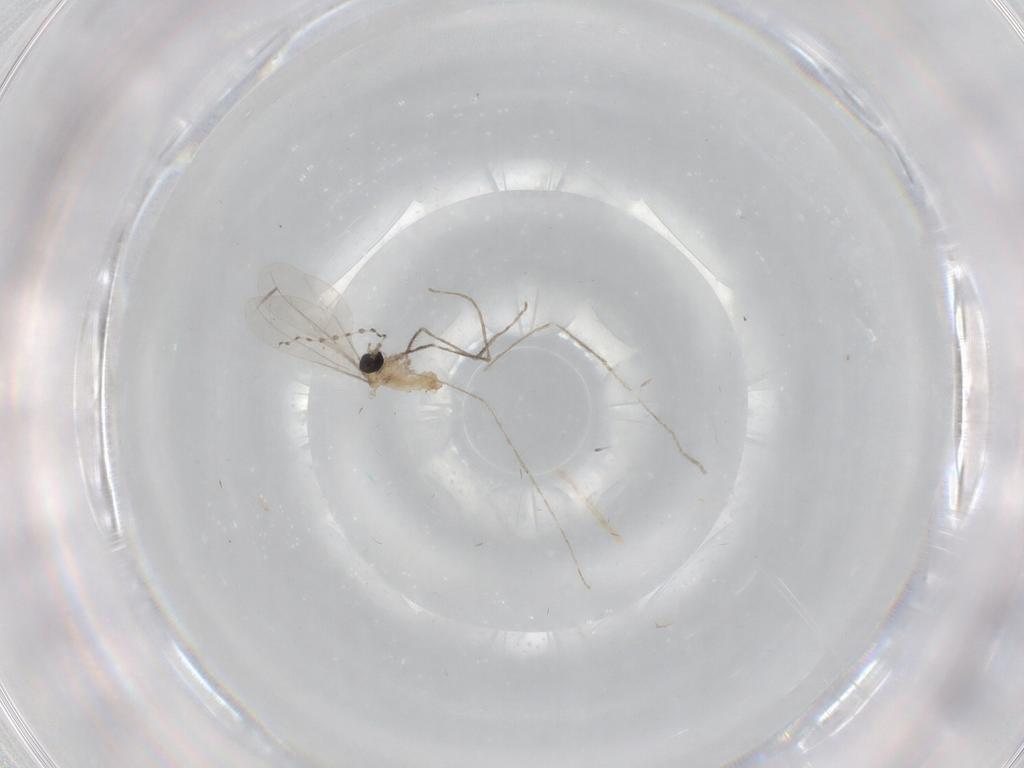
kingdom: Animalia
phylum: Arthropoda
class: Insecta
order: Diptera
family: Cecidomyiidae
